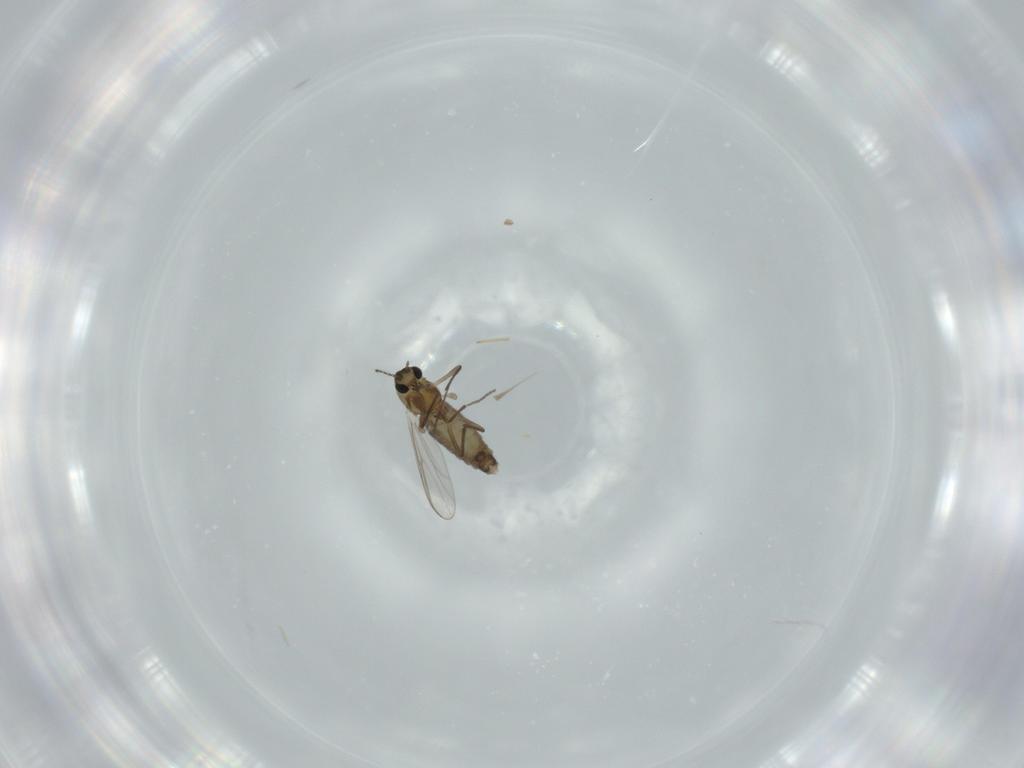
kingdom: Animalia
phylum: Arthropoda
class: Insecta
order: Diptera
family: Chironomidae
